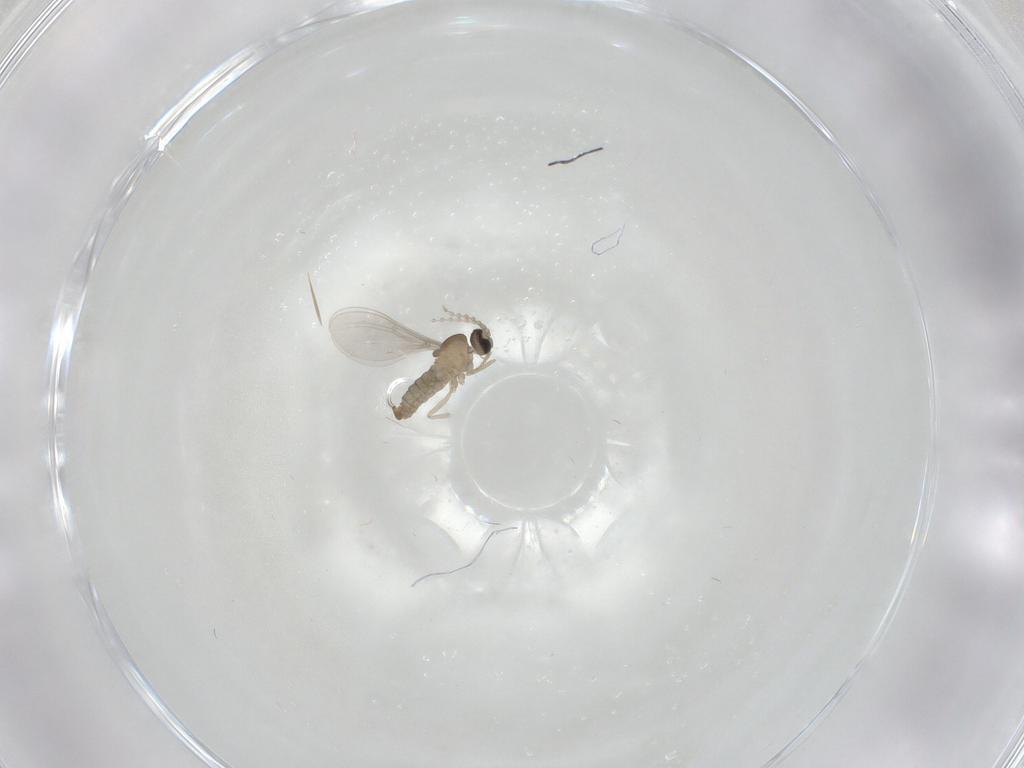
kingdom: Animalia
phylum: Arthropoda
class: Insecta
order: Diptera
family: Cecidomyiidae
